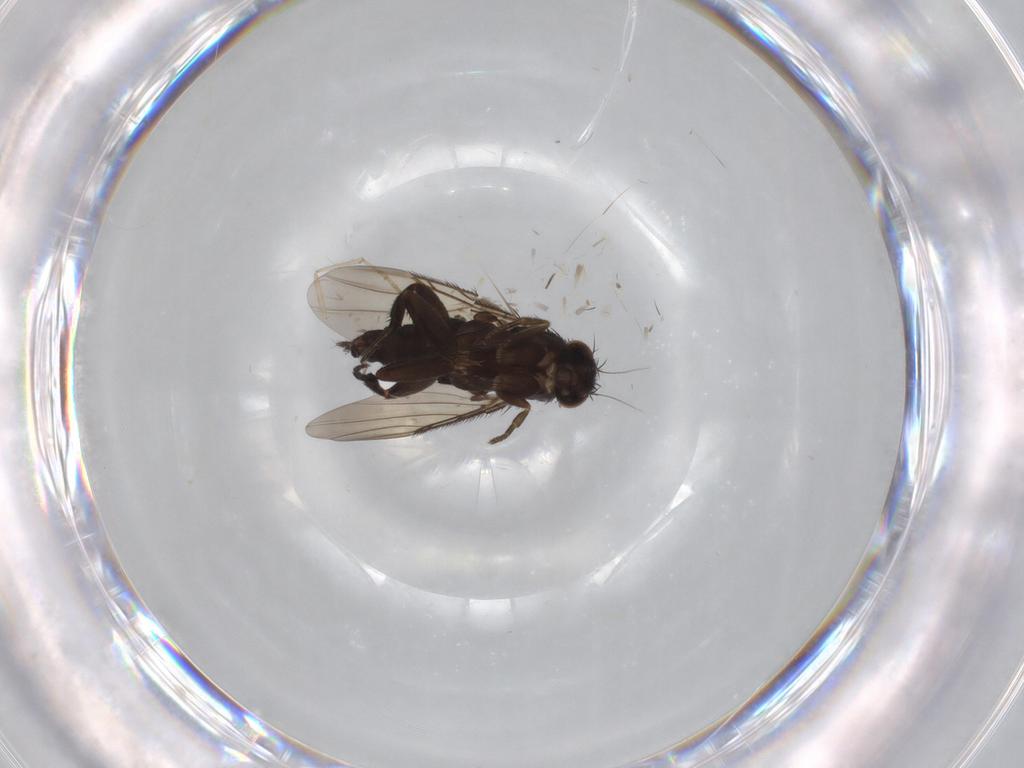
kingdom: Animalia
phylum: Arthropoda
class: Insecta
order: Diptera
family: Phoridae
